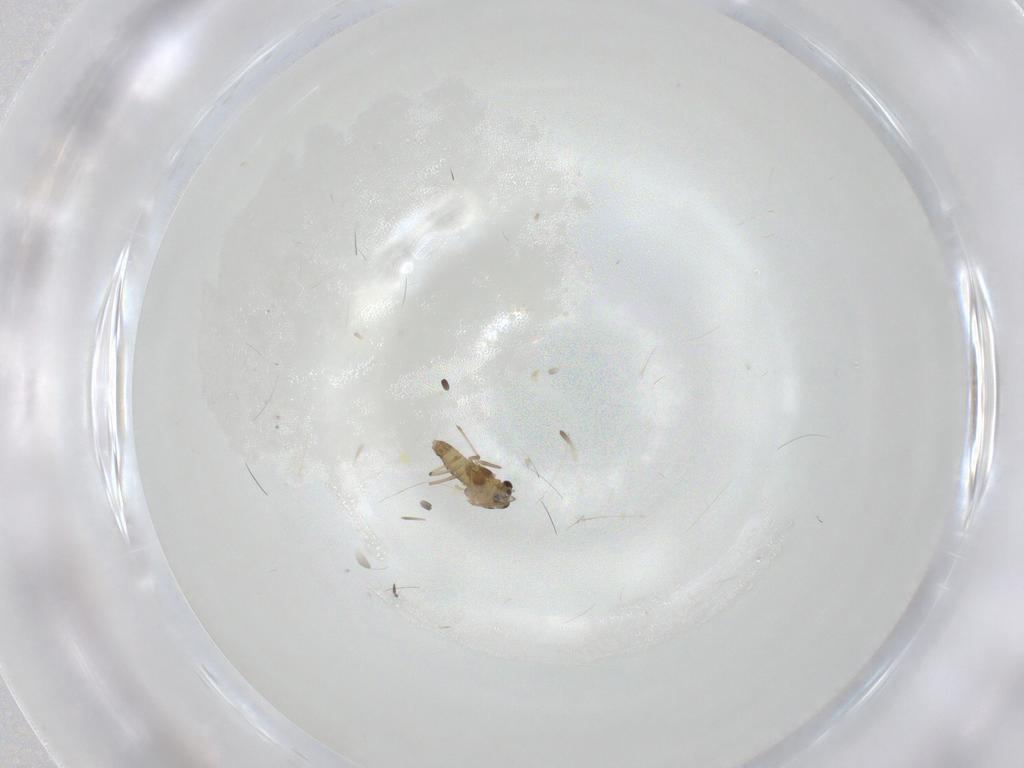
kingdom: Animalia
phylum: Arthropoda
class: Insecta
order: Diptera
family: Chironomidae
